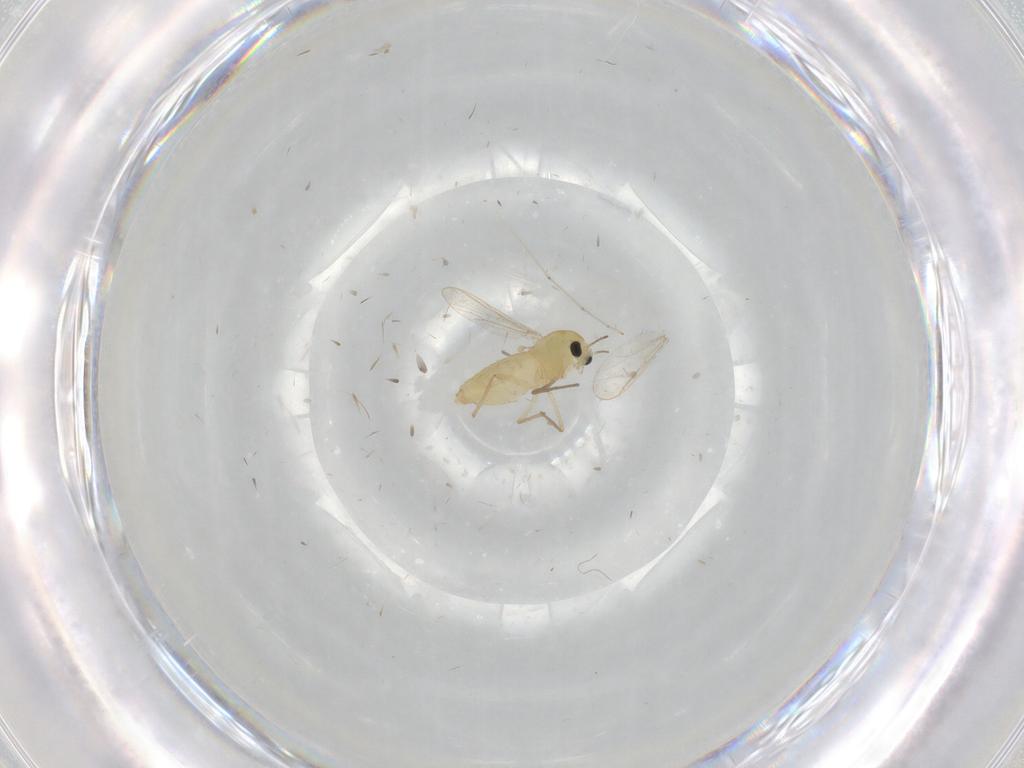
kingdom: Animalia
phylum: Arthropoda
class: Insecta
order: Diptera
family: Chironomidae
